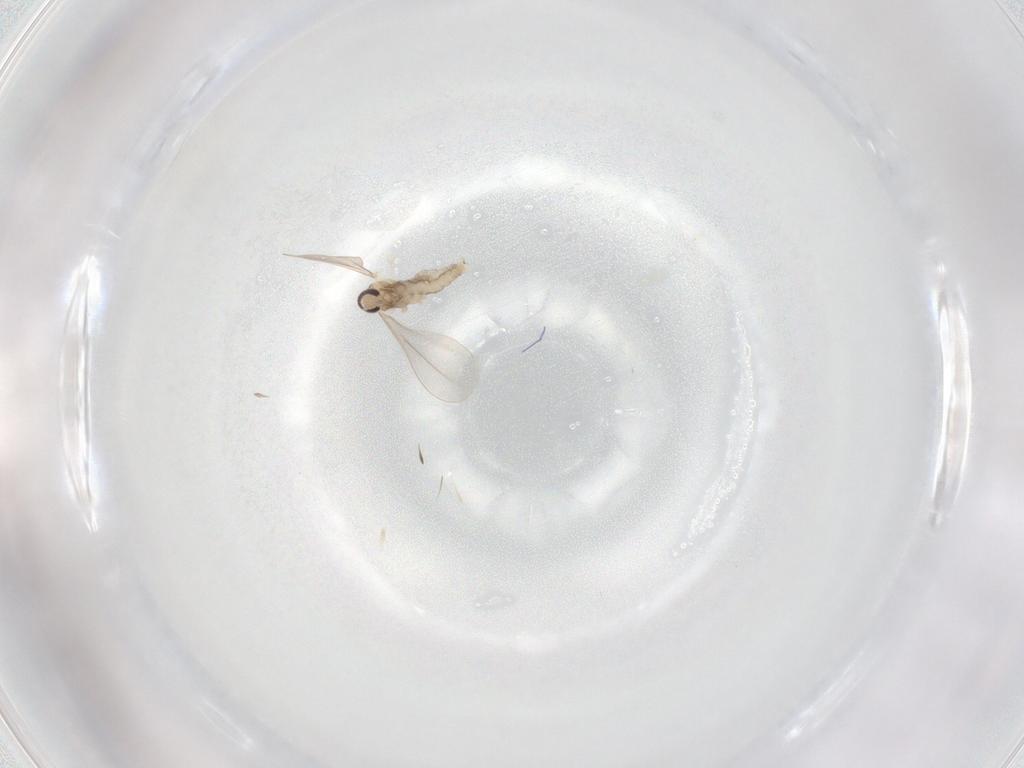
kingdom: Animalia
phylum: Arthropoda
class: Insecta
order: Diptera
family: Cecidomyiidae
